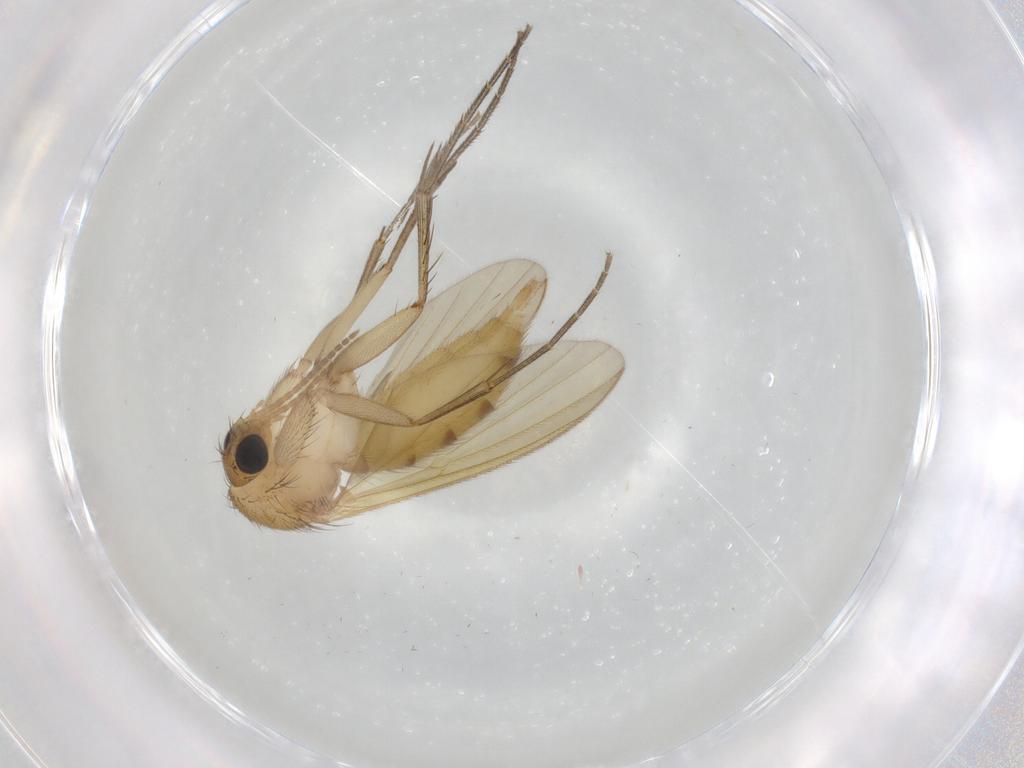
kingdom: Animalia
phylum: Arthropoda
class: Insecta
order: Diptera
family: Mycetophilidae
